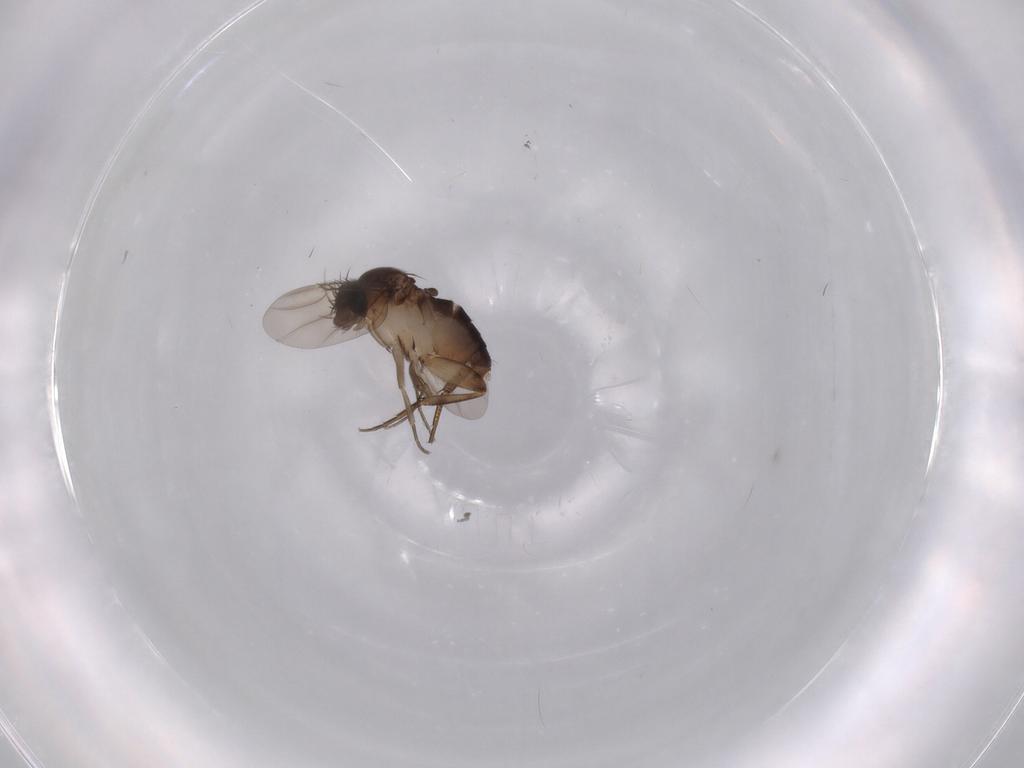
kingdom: Animalia
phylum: Arthropoda
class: Insecta
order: Diptera
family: Phoridae
